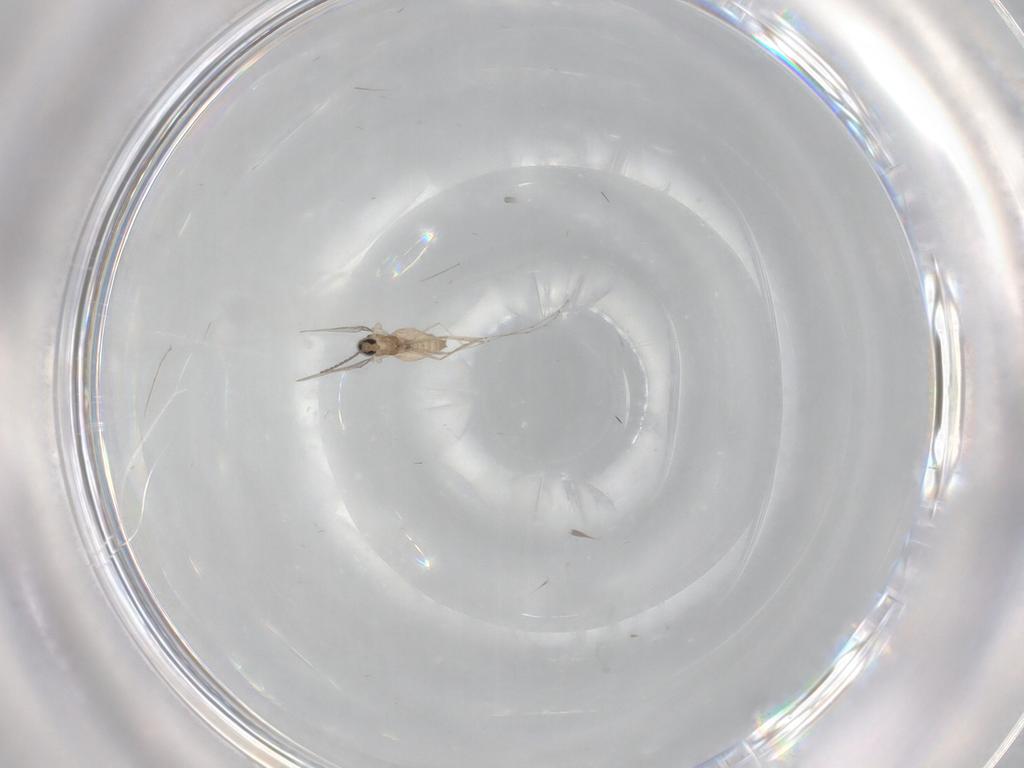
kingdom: Animalia
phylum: Arthropoda
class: Insecta
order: Diptera
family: Cecidomyiidae
